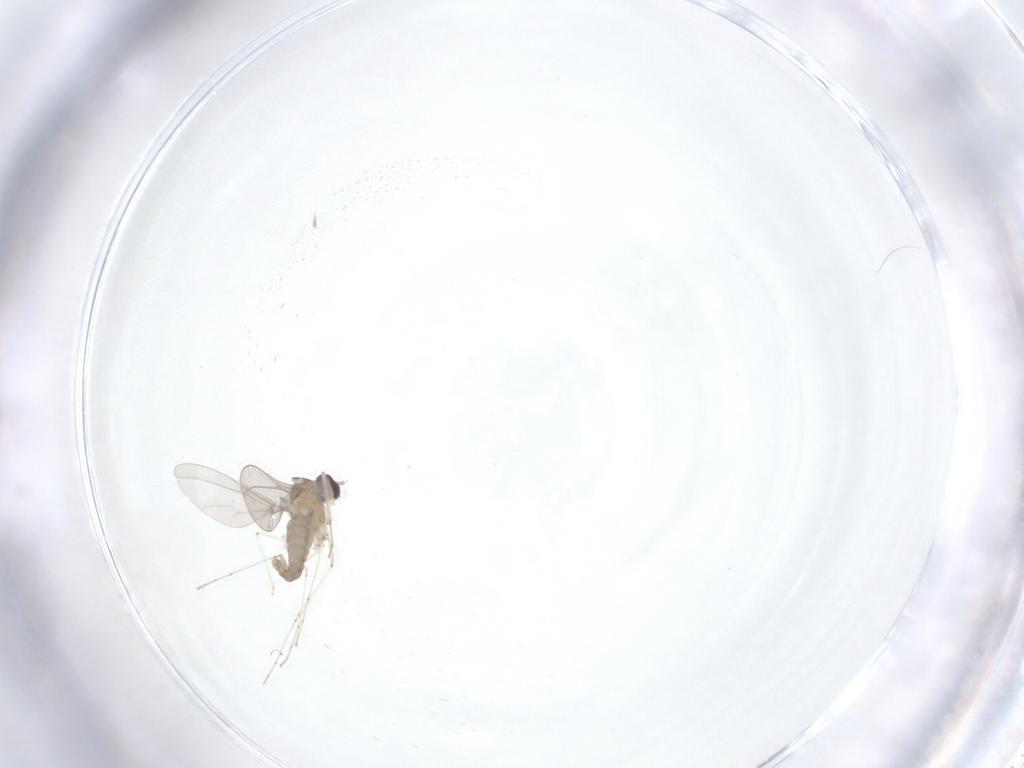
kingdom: Animalia
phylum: Arthropoda
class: Insecta
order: Diptera
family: Cecidomyiidae
